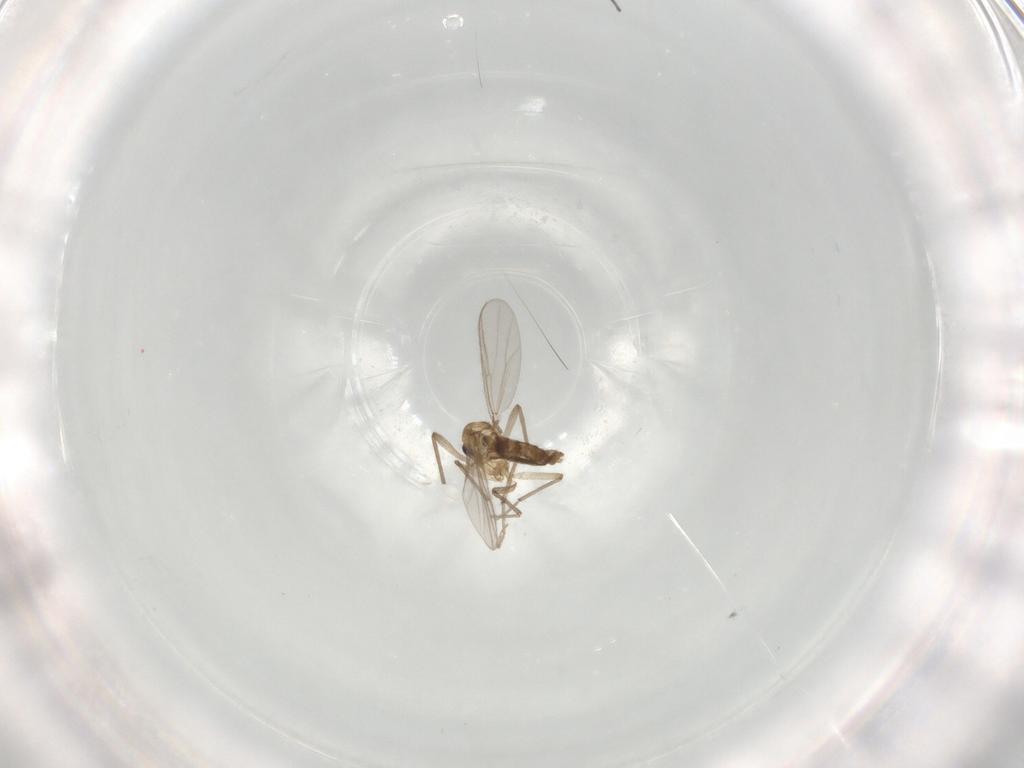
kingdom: Animalia
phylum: Arthropoda
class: Insecta
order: Diptera
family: Chironomidae
